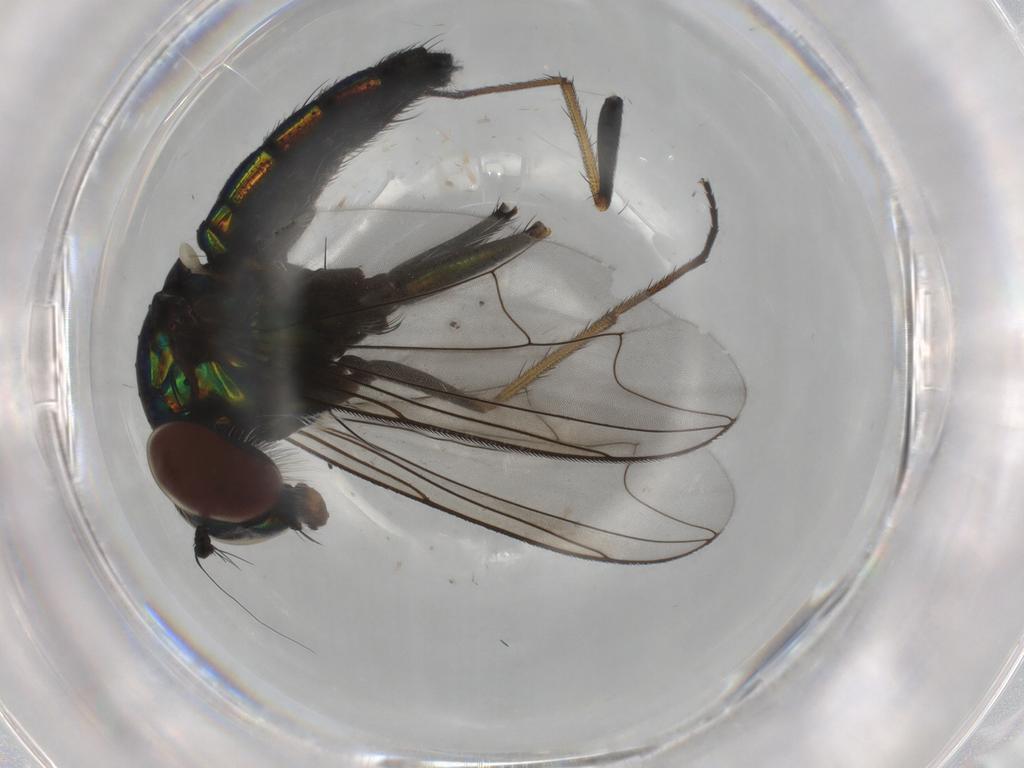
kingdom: Animalia
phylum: Arthropoda
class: Insecta
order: Diptera
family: Dolichopodidae
